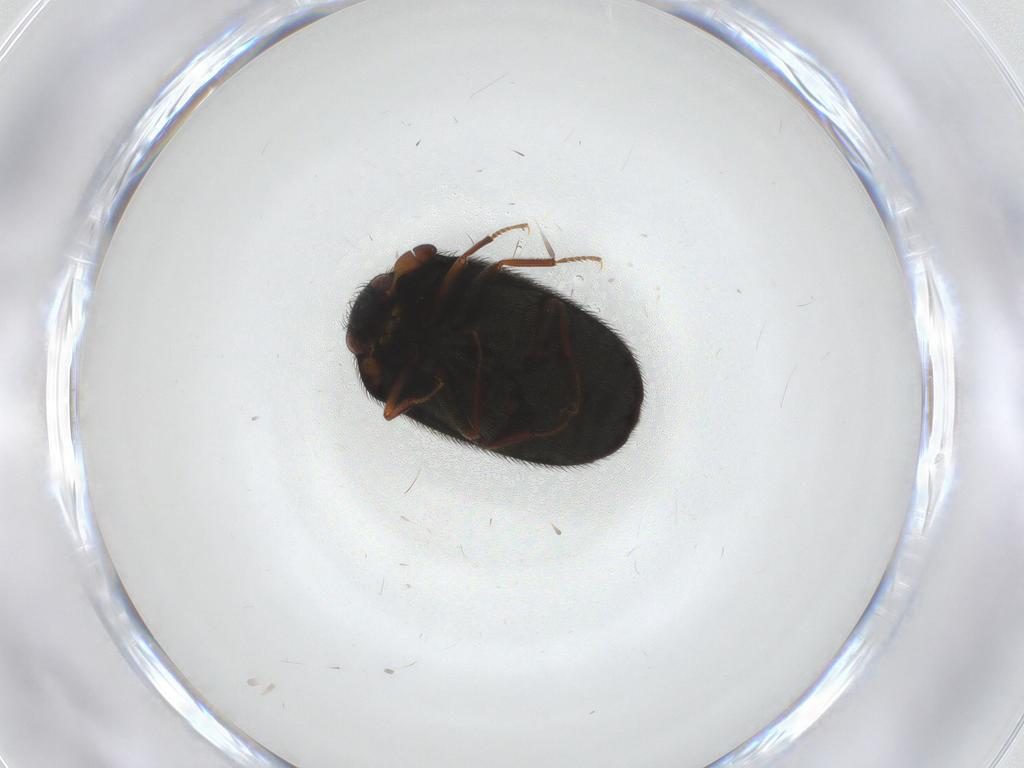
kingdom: Animalia
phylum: Arthropoda
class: Insecta
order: Coleoptera
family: Dermestidae
